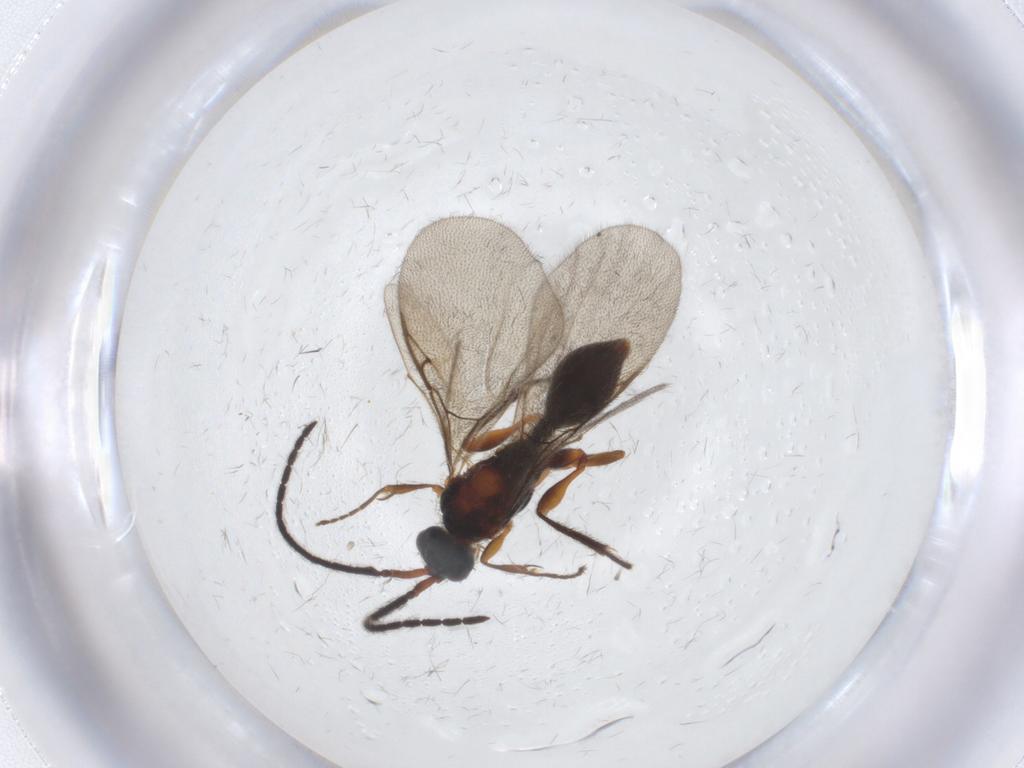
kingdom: Animalia
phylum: Arthropoda
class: Insecta
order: Hymenoptera
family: Diapriidae
